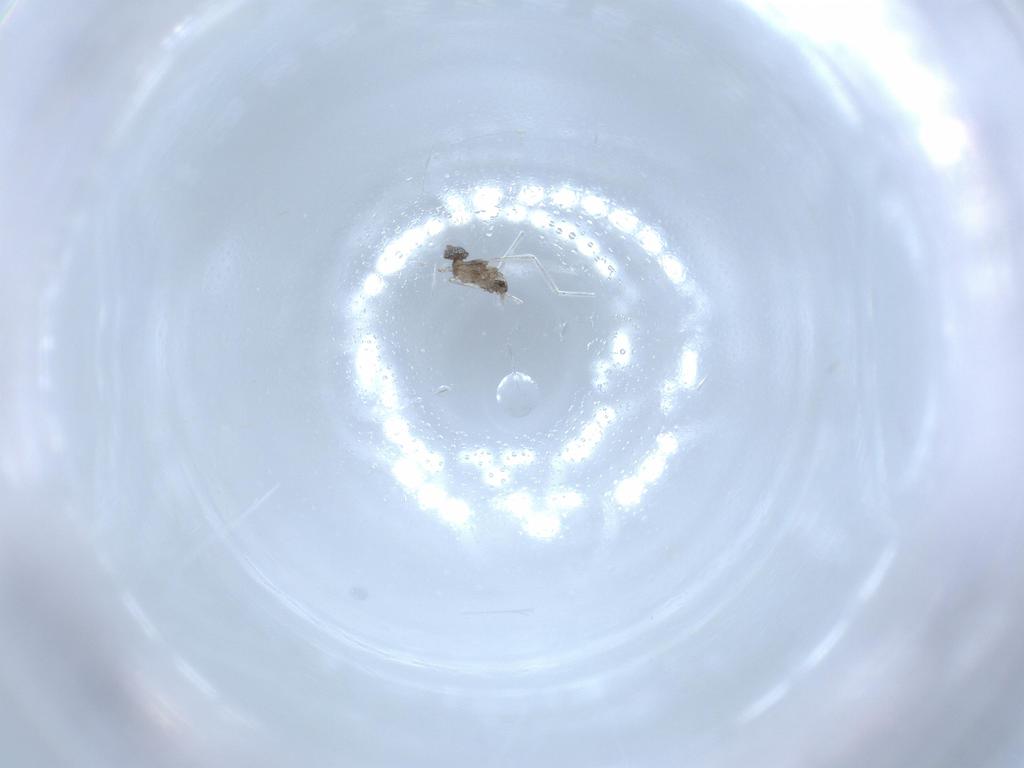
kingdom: Animalia
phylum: Arthropoda
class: Insecta
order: Diptera
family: Cecidomyiidae
